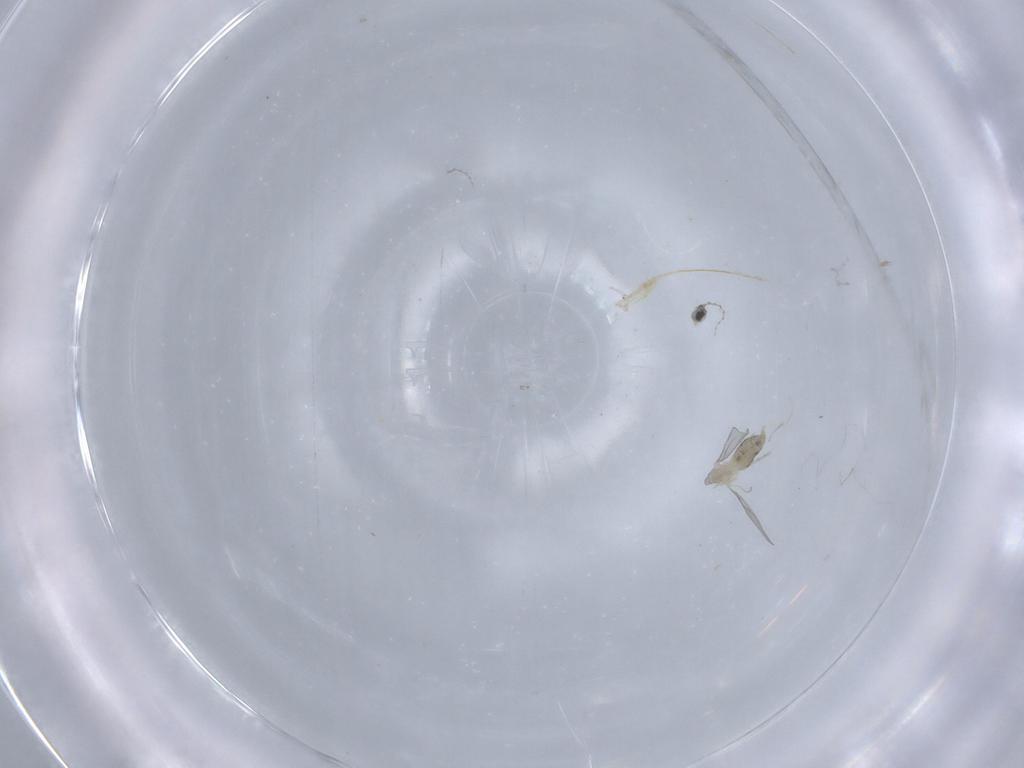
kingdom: Animalia
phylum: Arthropoda
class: Insecta
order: Diptera
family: Cecidomyiidae
